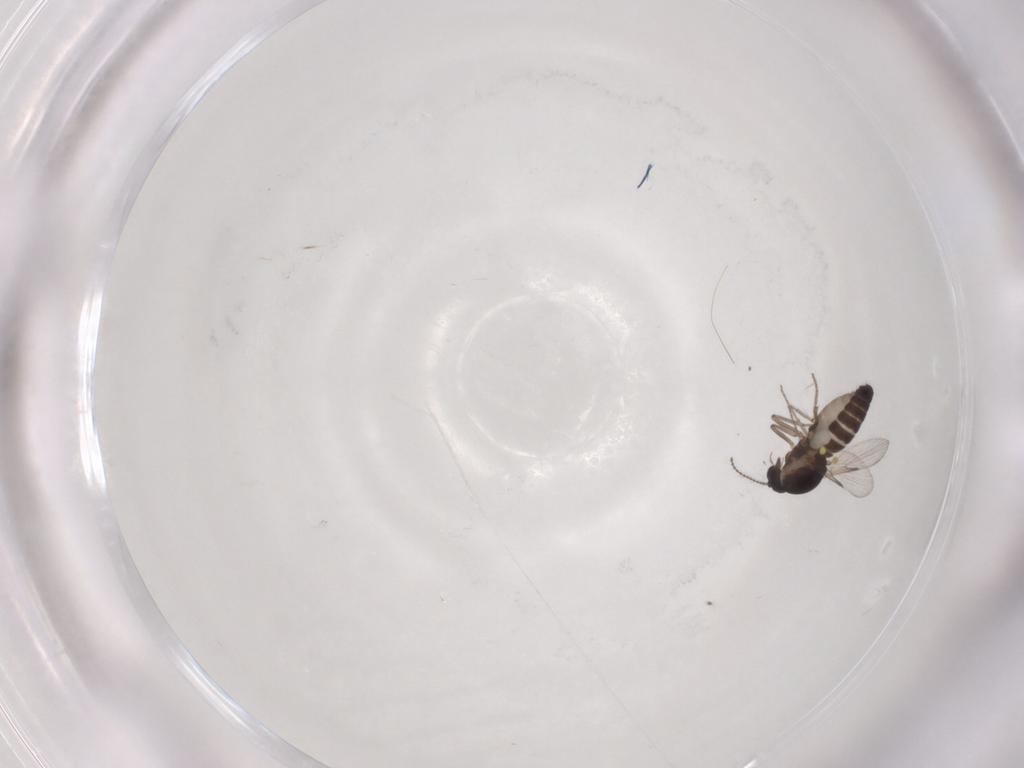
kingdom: Animalia
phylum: Arthropoda
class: Insecta
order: Diptera
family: Ceratopogonidae
